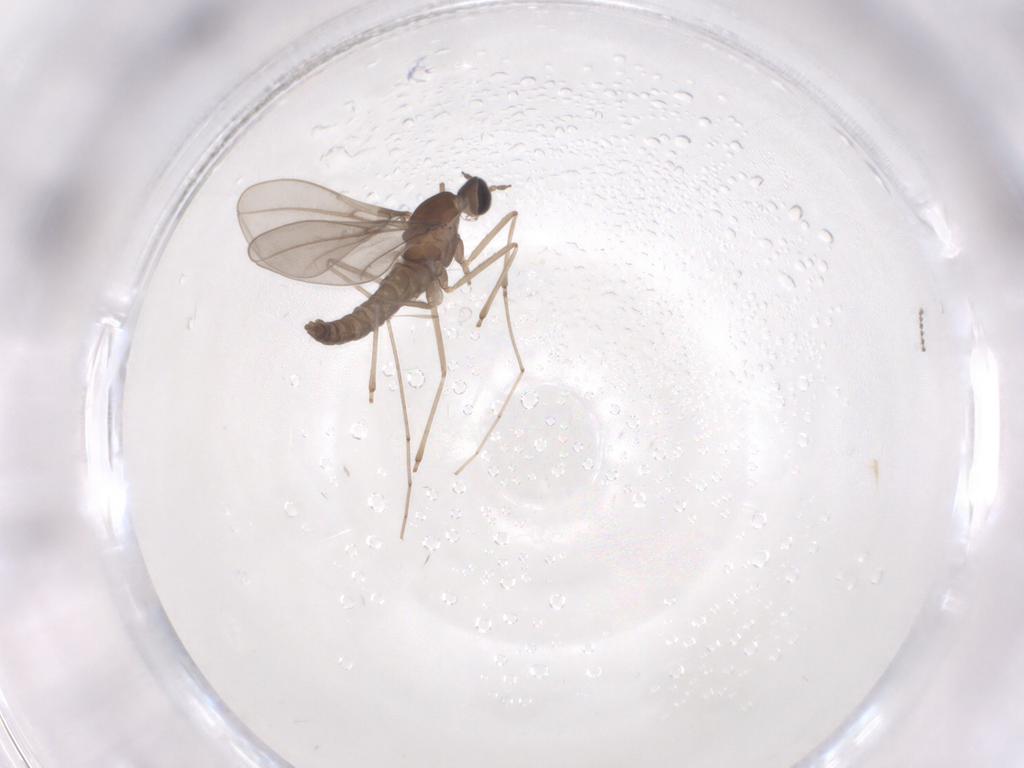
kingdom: Animalia
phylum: Arthropoda
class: Insecta
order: Diptera
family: Cecidomyiidae
